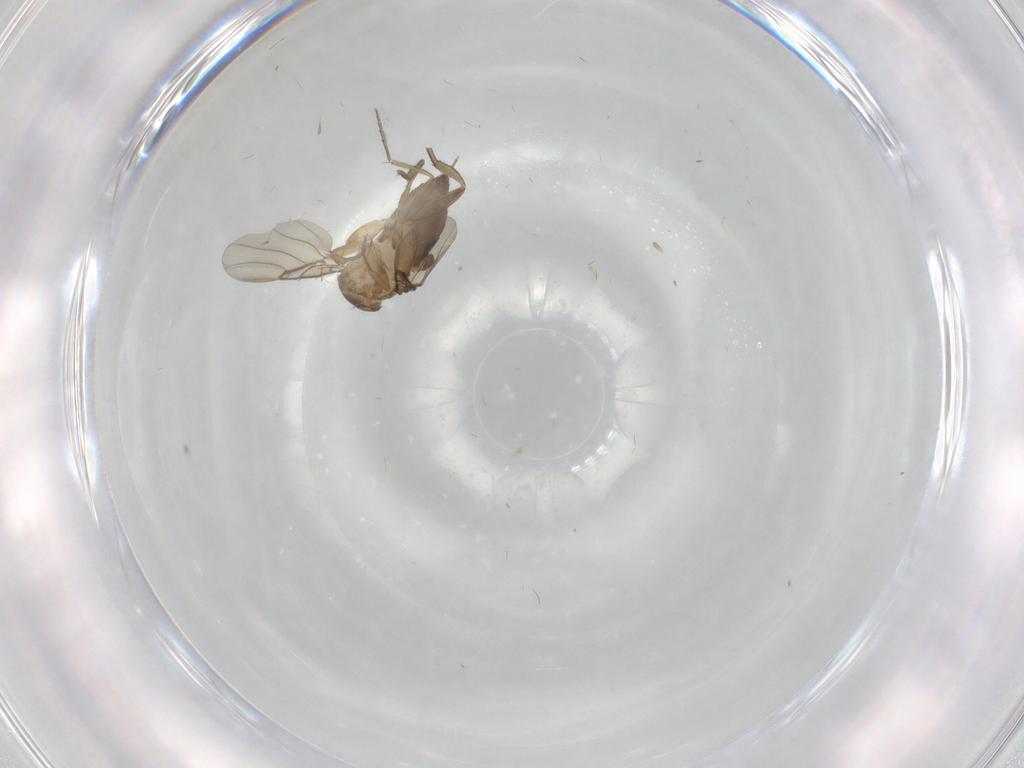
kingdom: Animalia
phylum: Arthropoda
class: Insecta
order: Diptera
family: Phoridae
